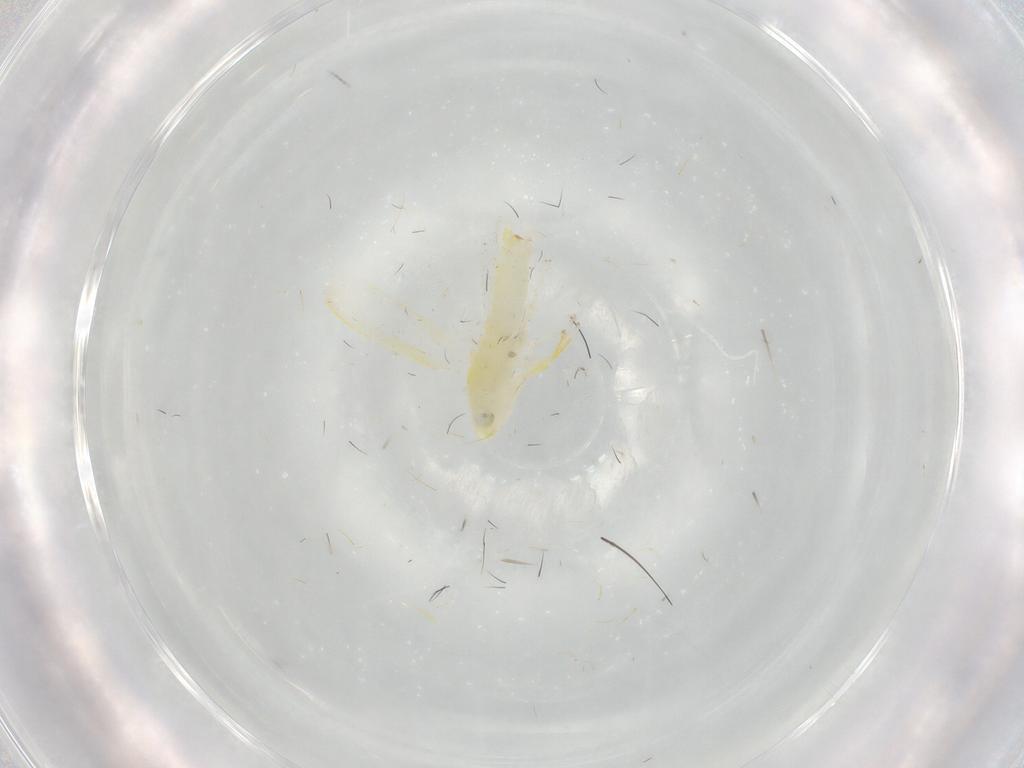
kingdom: Animalia
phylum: Arthropoda
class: Insecta
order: Hemiptera
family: Cicadellidae
